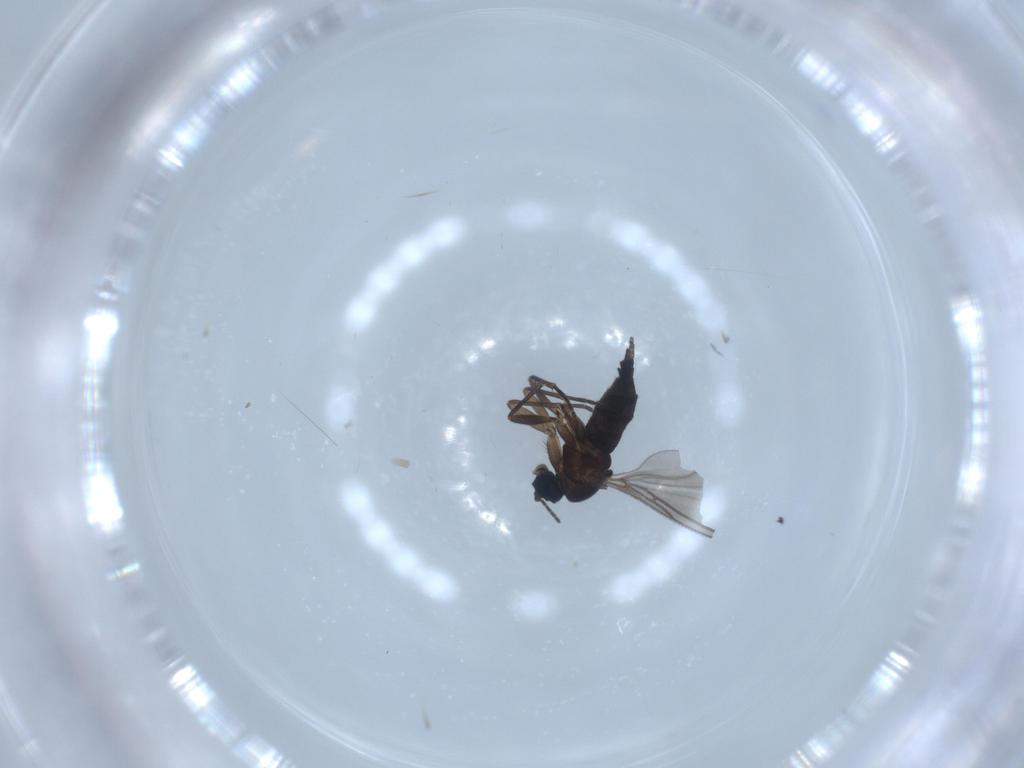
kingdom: Animalia
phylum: Arthropoda
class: Insecta
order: Diptera
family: Sciaridae
